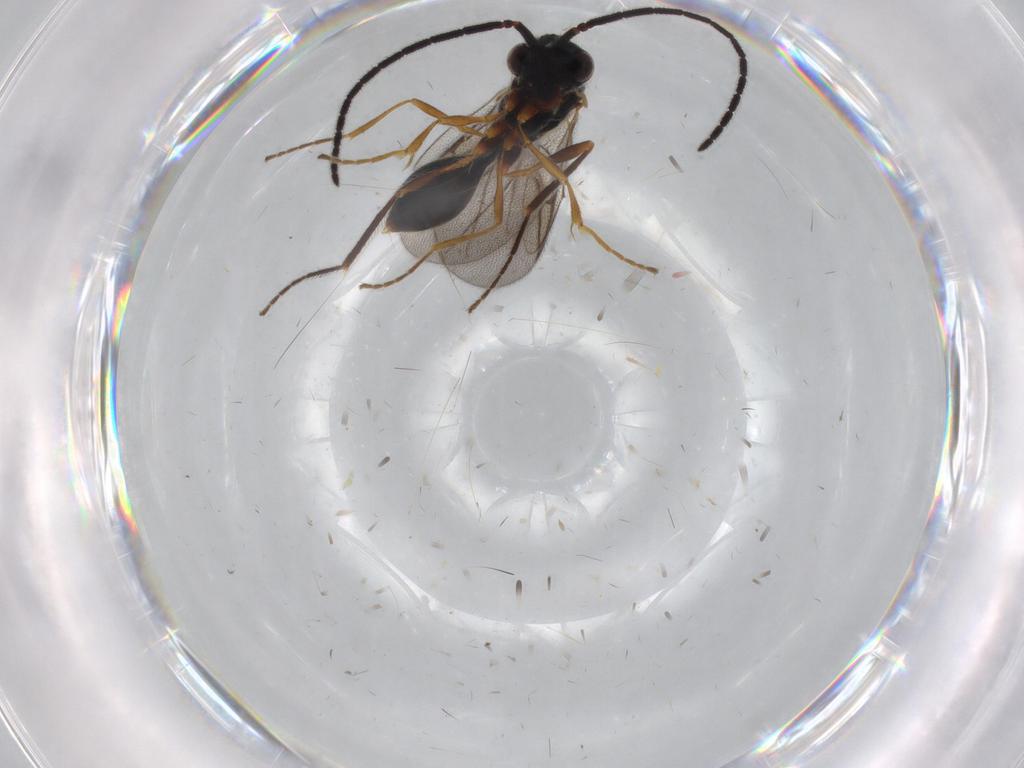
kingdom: Animalia
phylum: Arthropoda
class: Insecta
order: Hymenoptera
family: Diapriidae
